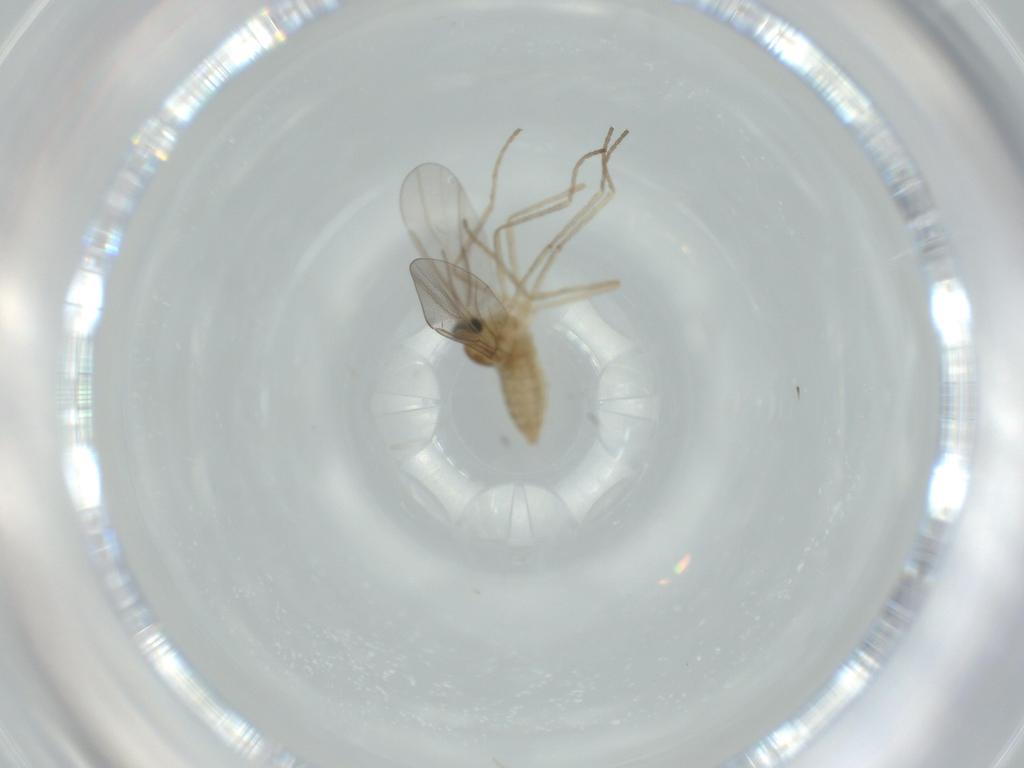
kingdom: Animalia
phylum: Arthropoda
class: Insecta
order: Diptera
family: Cecidomyiidae
